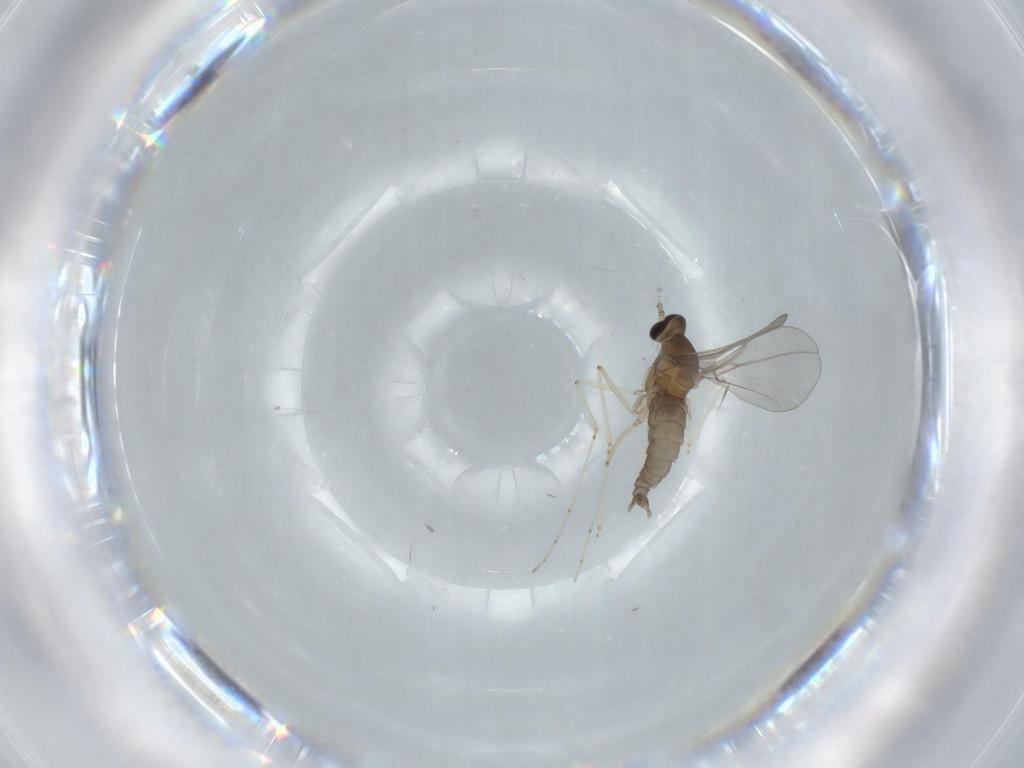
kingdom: Animalia
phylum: Arthropoda
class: Insecta
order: Diptera
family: Cecidomyiidae
